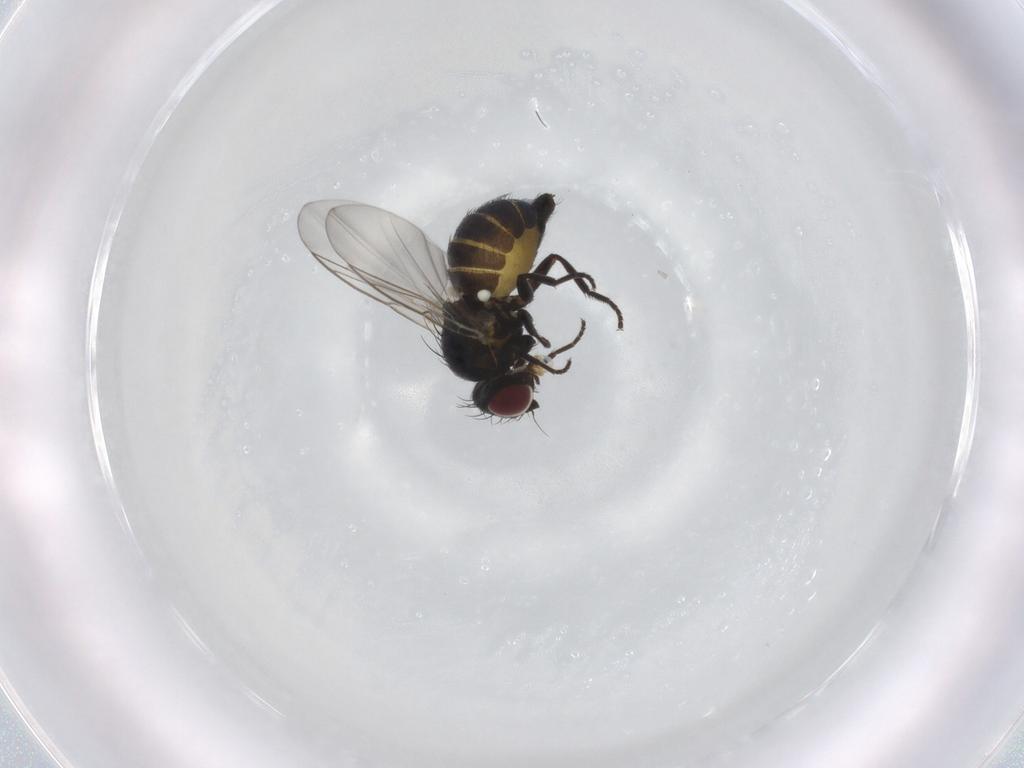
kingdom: Animalia
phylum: Arthropoda
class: Insecta
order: Diptera
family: Agromyzidae
